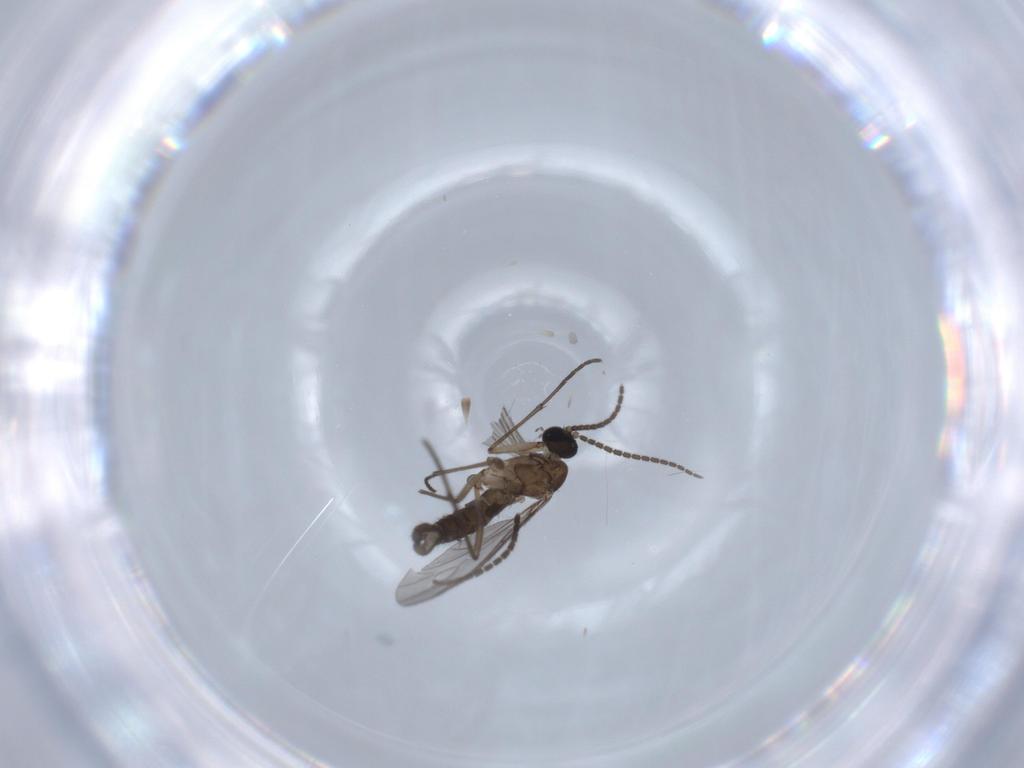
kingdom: Animalia
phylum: Arthropoda
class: Insecta
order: Diptera
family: Sciaridae
